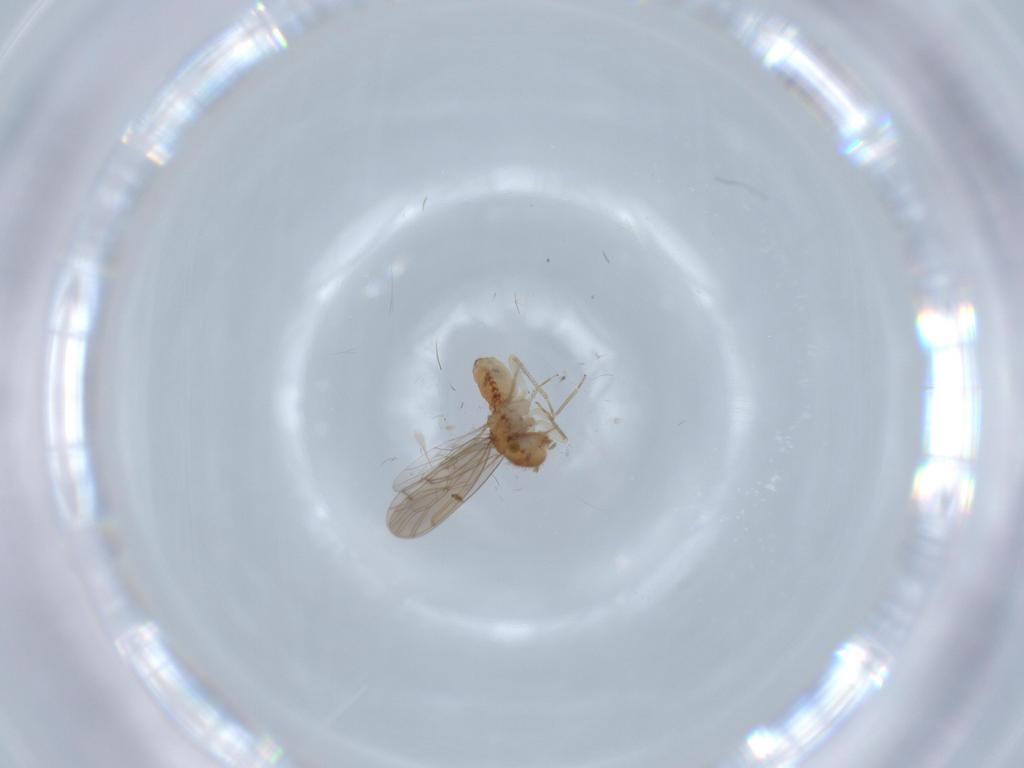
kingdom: Animalia
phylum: Arthropoda
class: Insecta
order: Psocodea
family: Ectopsocidae
